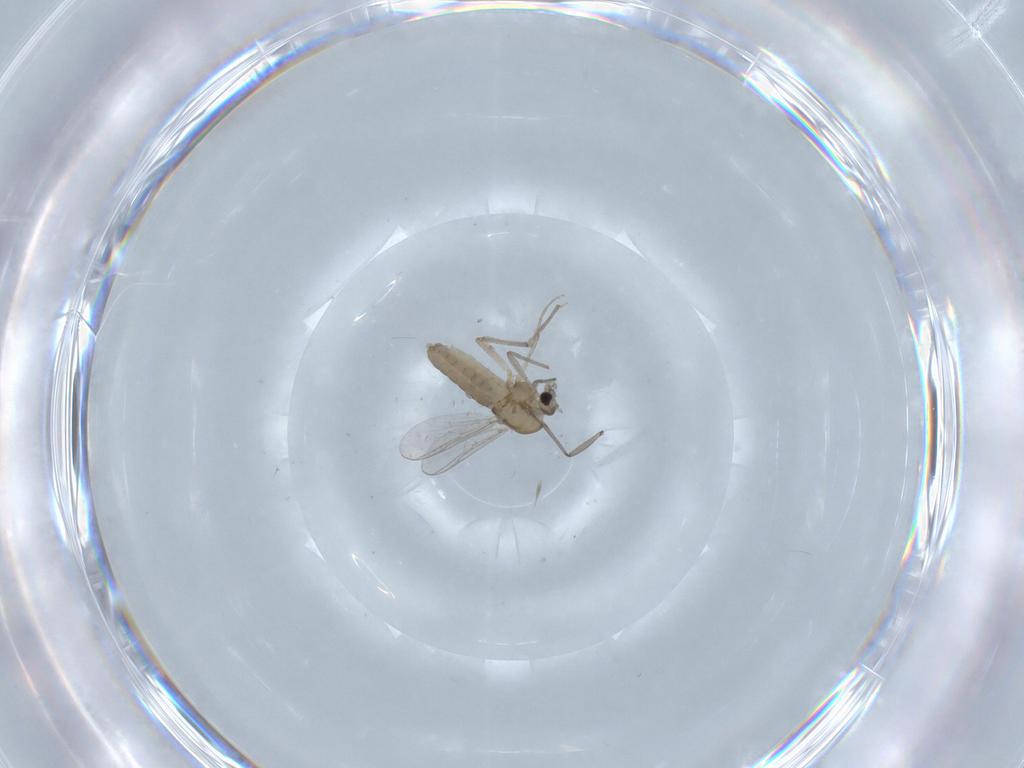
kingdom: Animalia
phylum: Arthropoda
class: Insecta
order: Diptera
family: Chironomidae
